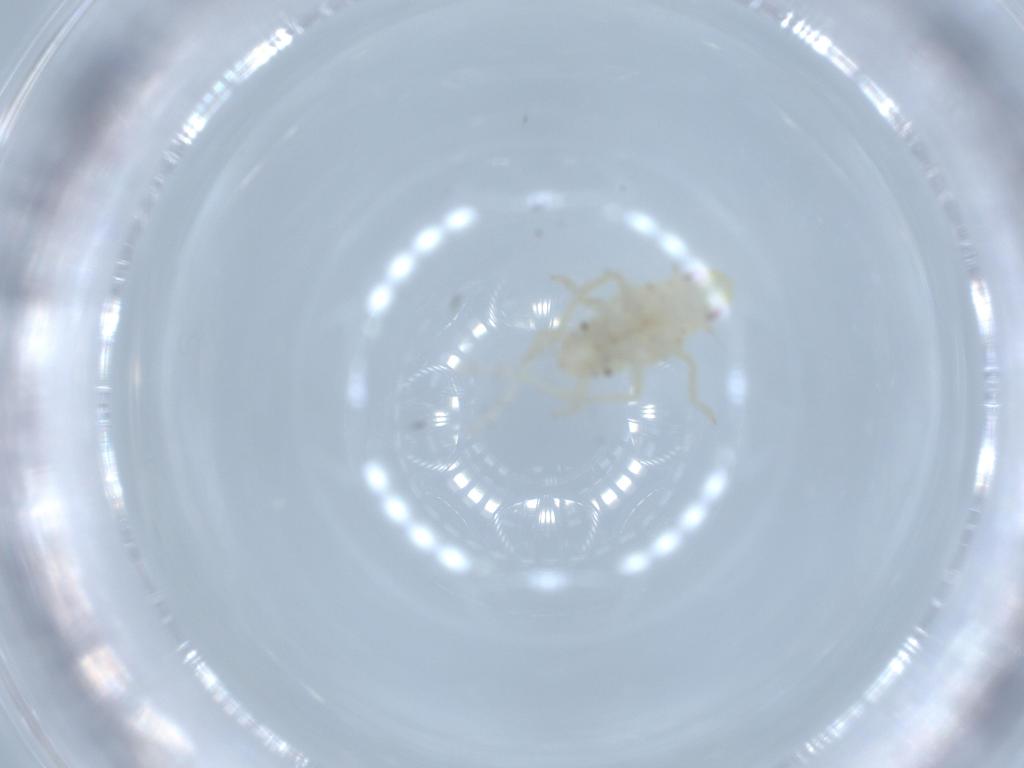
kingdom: Animalia
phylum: Arthropoda
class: Insecta
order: Hemiptera
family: Tropiduchidae
